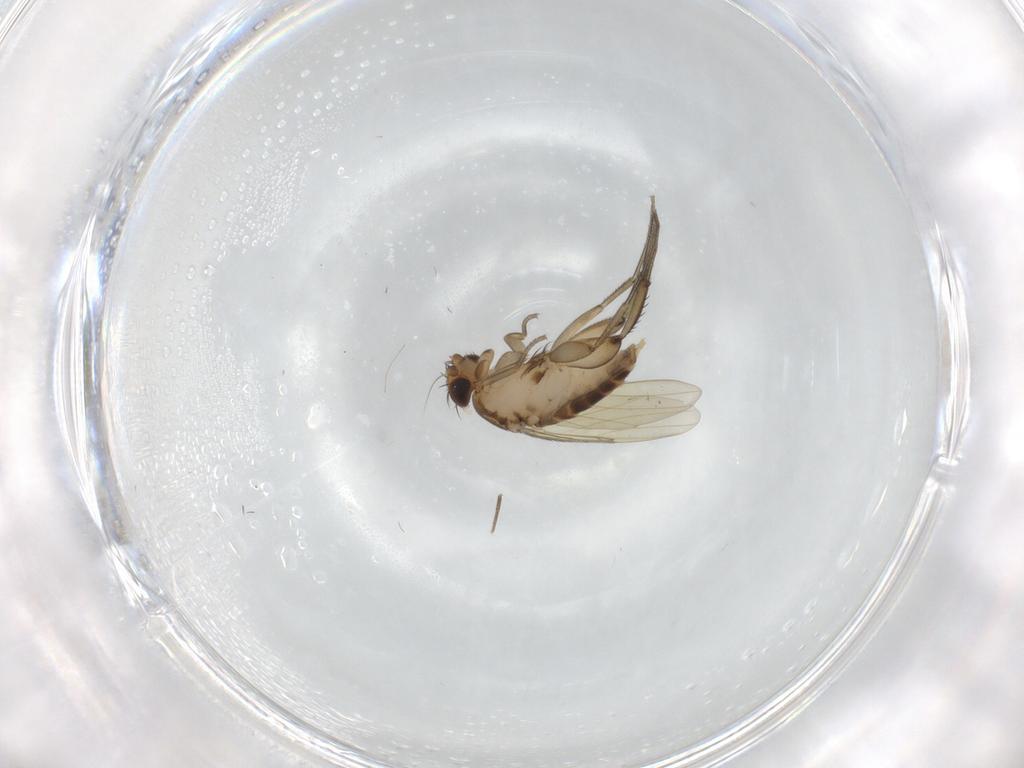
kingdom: Animalia
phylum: Arthropoda
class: Insecta
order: Diptera
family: Phoridae
